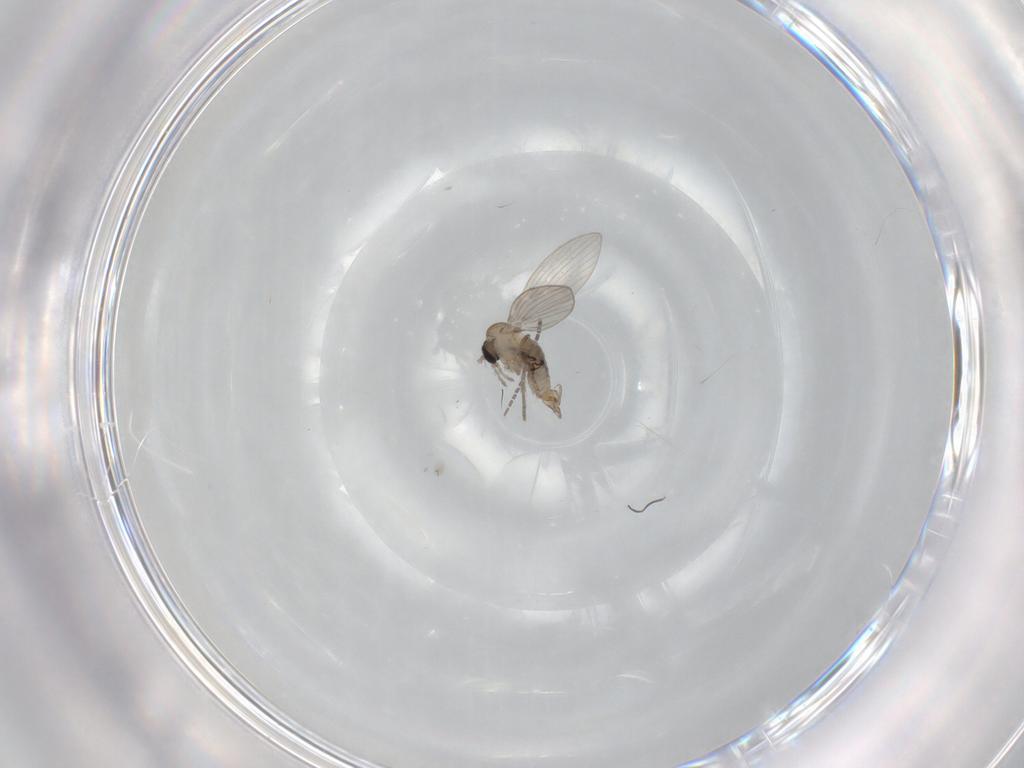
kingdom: Animalia
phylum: Arthropoda
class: Insecta
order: Diptera
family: Psychodidae
